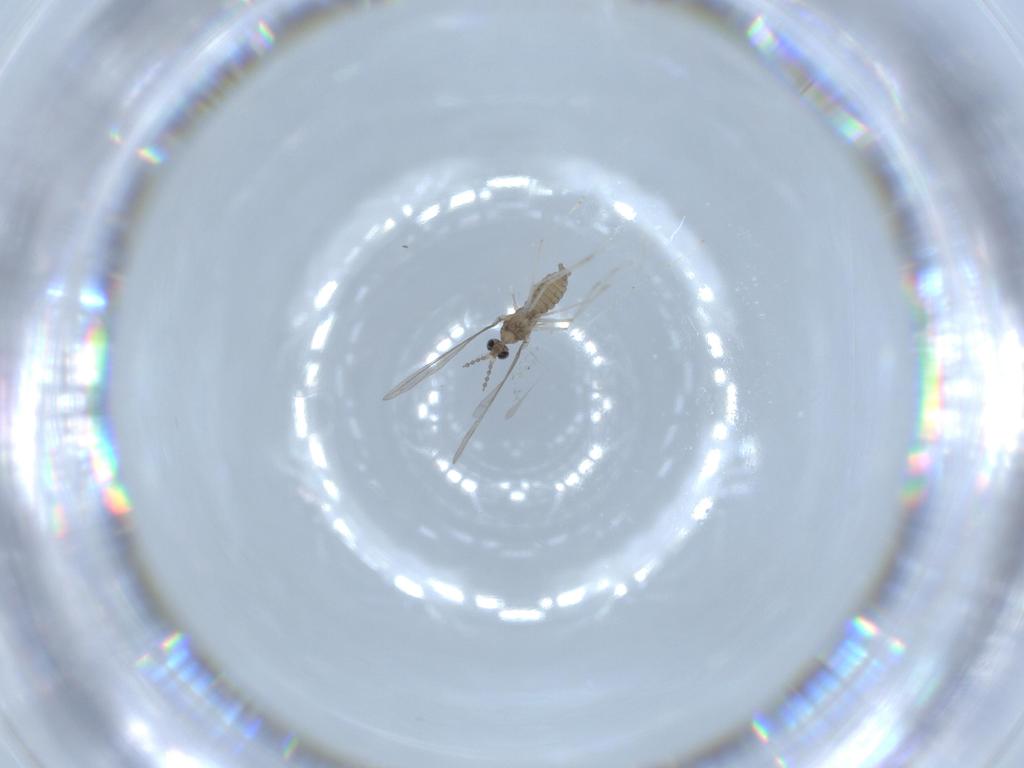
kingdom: Animalia
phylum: Arthropoda
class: Insecta
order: Diptera
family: Cecidomyiidae
